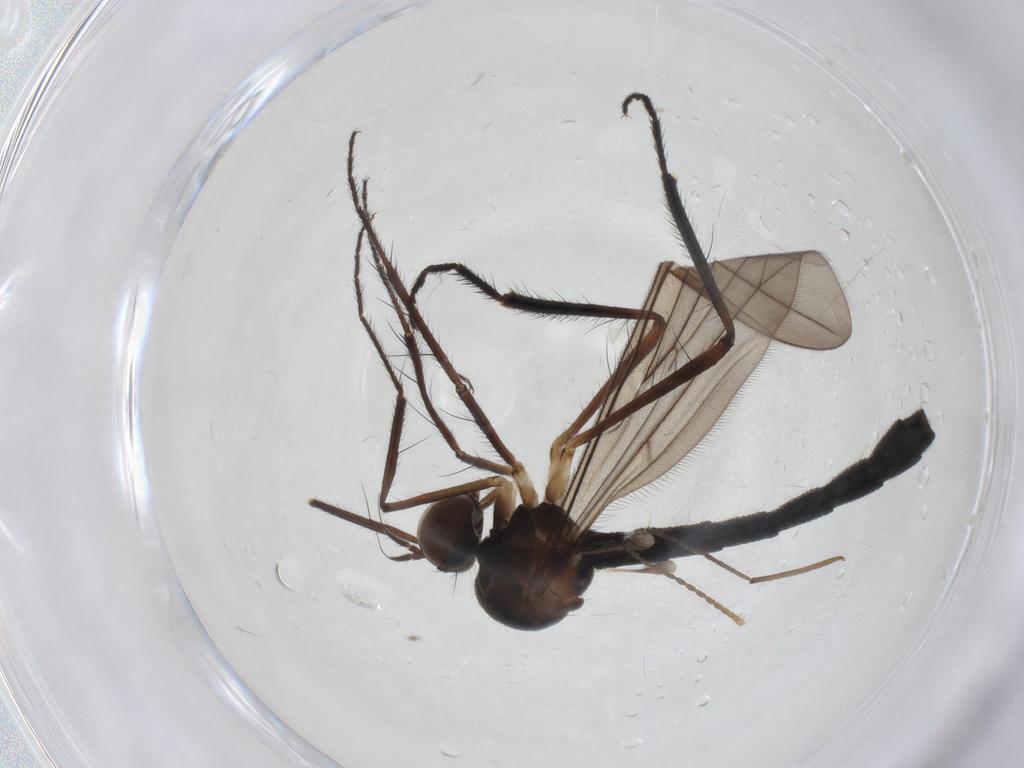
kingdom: Animalia
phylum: Arthropoda
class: Insecta
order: Diptera
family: Hybotidae
